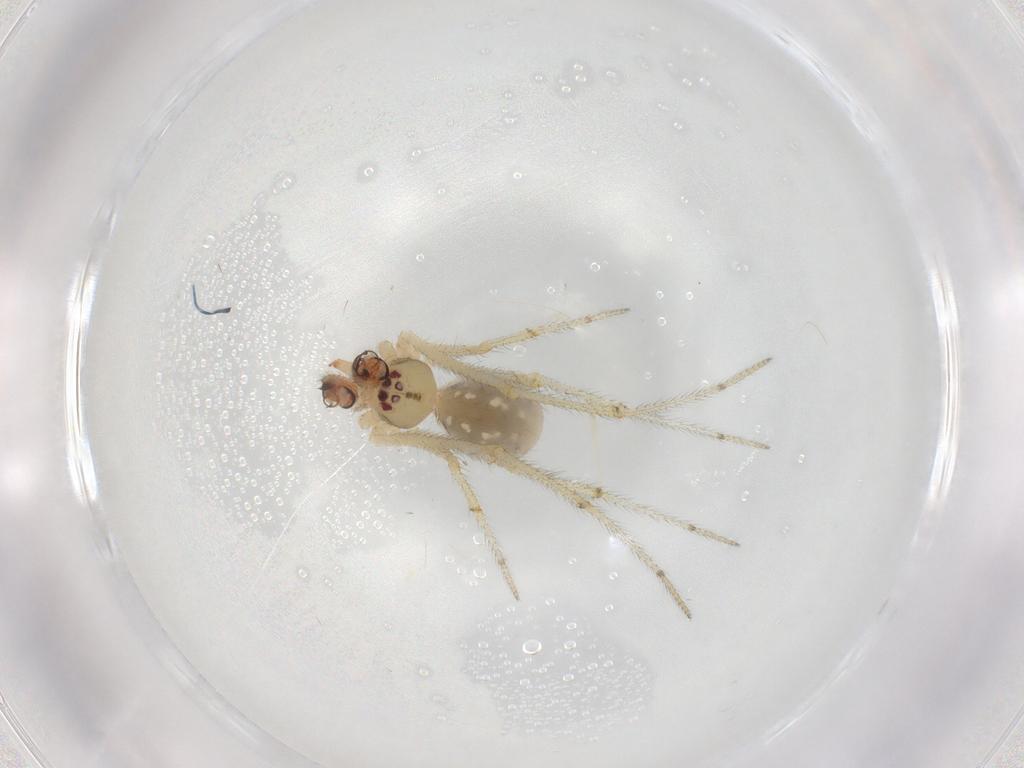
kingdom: Animalia
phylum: Arthropoda
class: Arachnida
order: Araneae
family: Theridiidae
